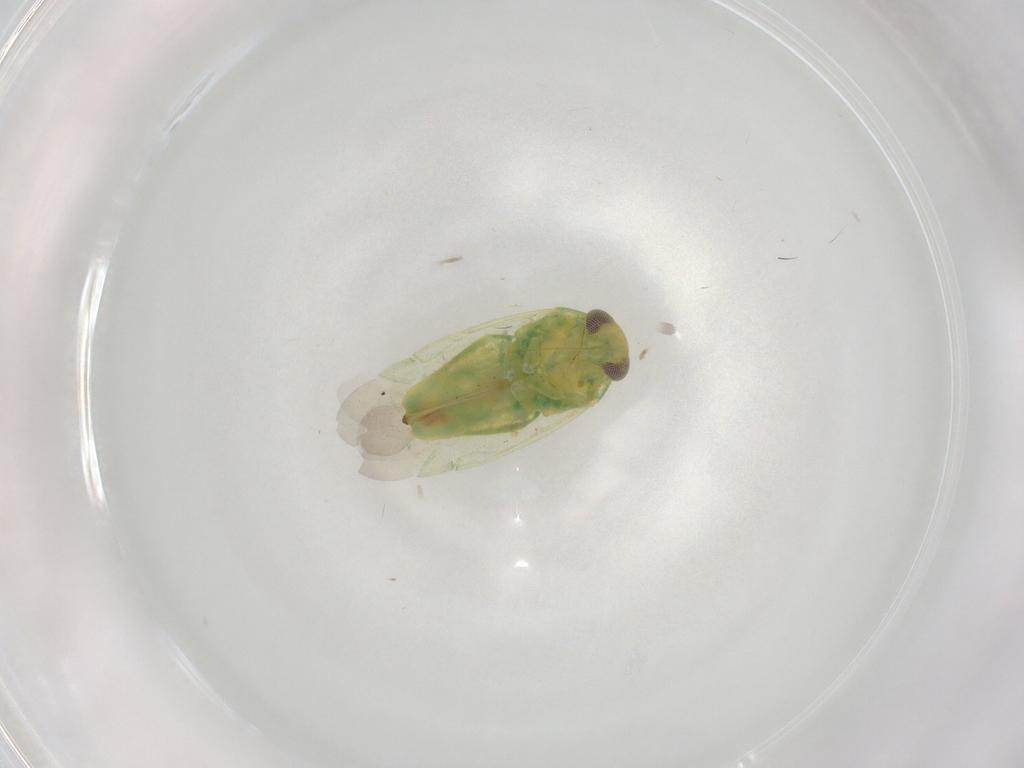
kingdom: Animalia
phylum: Arthropoda
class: Insecta
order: Hemiptera
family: Miridae
